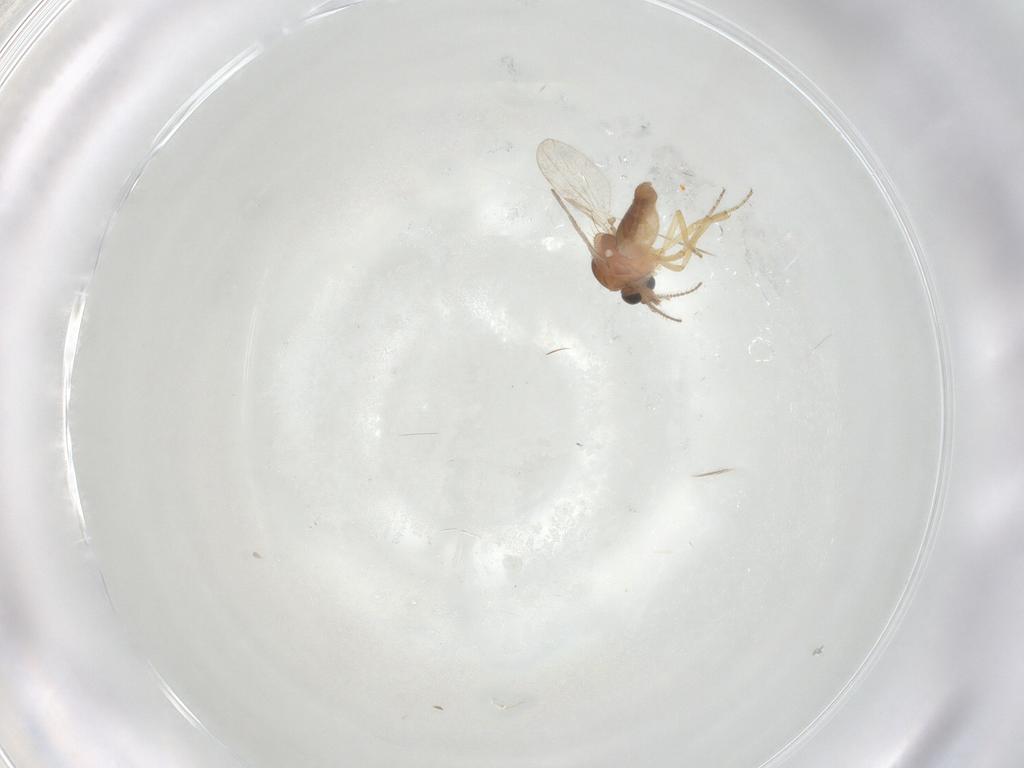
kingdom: Animalia
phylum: Arthropoda
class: Insecta
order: Diptera
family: Ceratopogonidae
